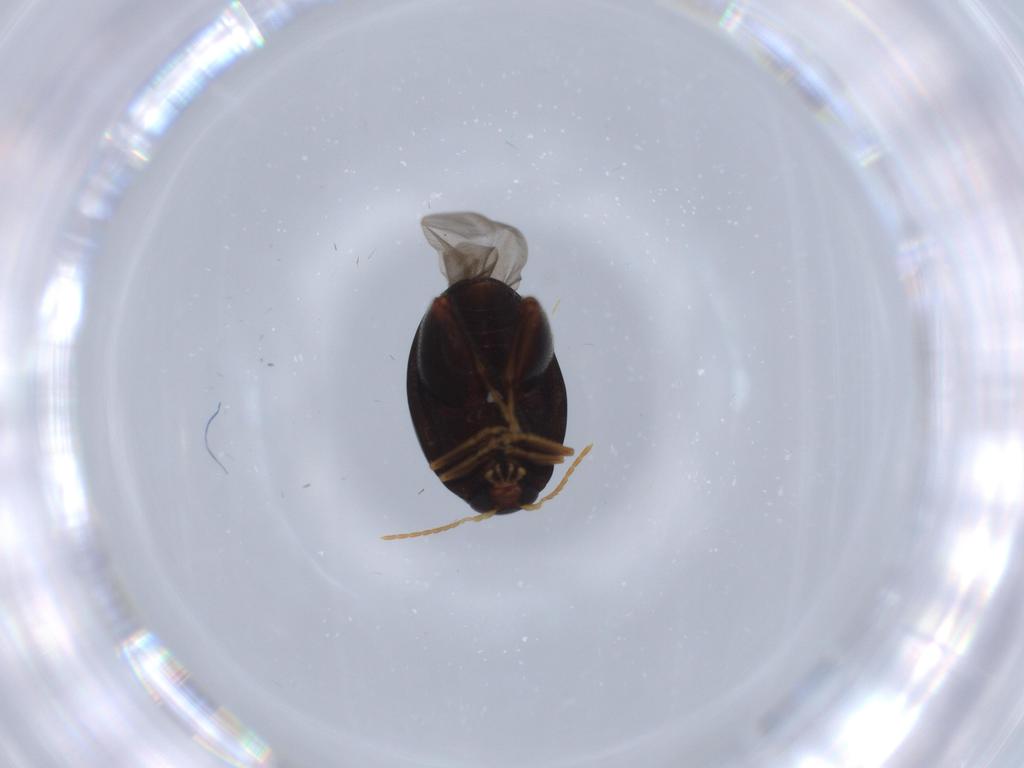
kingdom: Animalia
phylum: Arthropoda
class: Insecta
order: Coleoptera
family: Chrysomelidae
